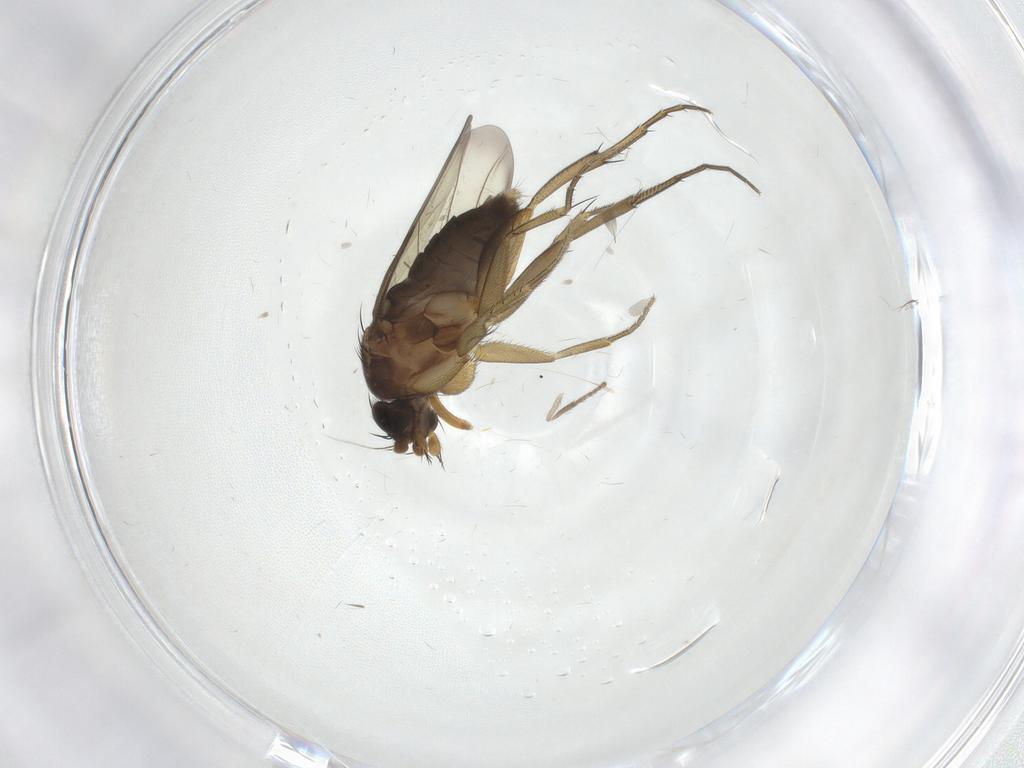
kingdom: Animalia
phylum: Arthropoda
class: Insecta
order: Diptera
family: Phoridae
